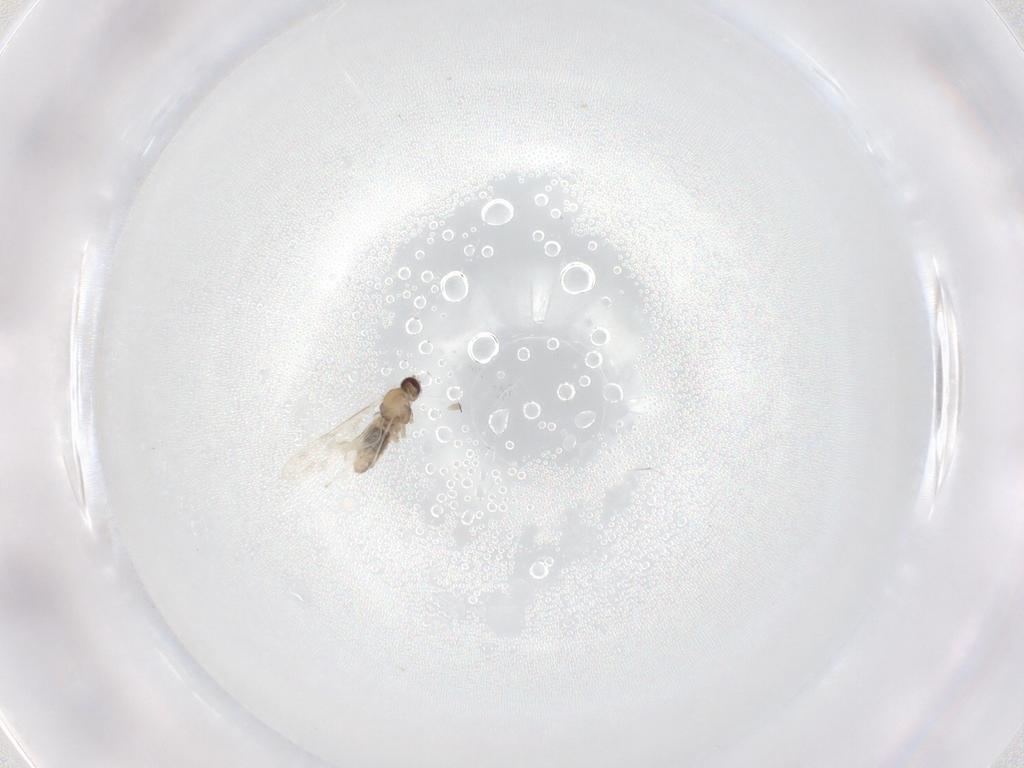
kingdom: Animalia
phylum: Arthropoda
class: Insecta
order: Diptera
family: Cecidomyiidae
